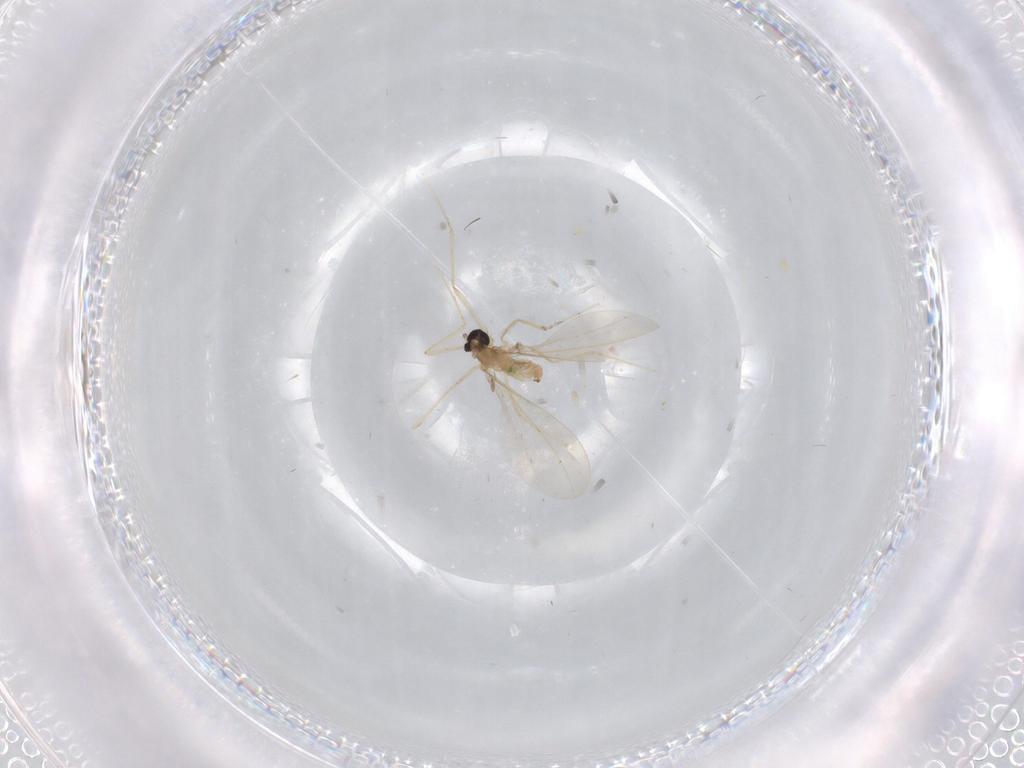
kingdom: Animalia
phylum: Arthropoda
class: Insecta
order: Diptera
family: Cecidomyiidae
